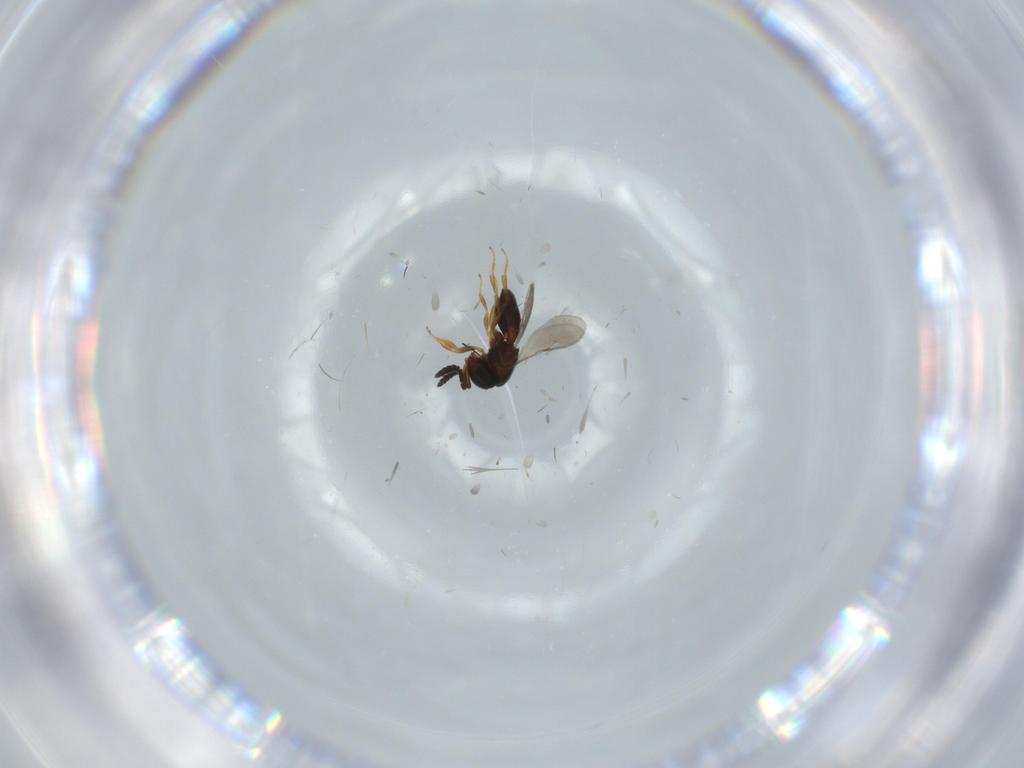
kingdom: Animalia
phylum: Arthropoda
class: Insecta
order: Hymenoptera
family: Scelionidae
